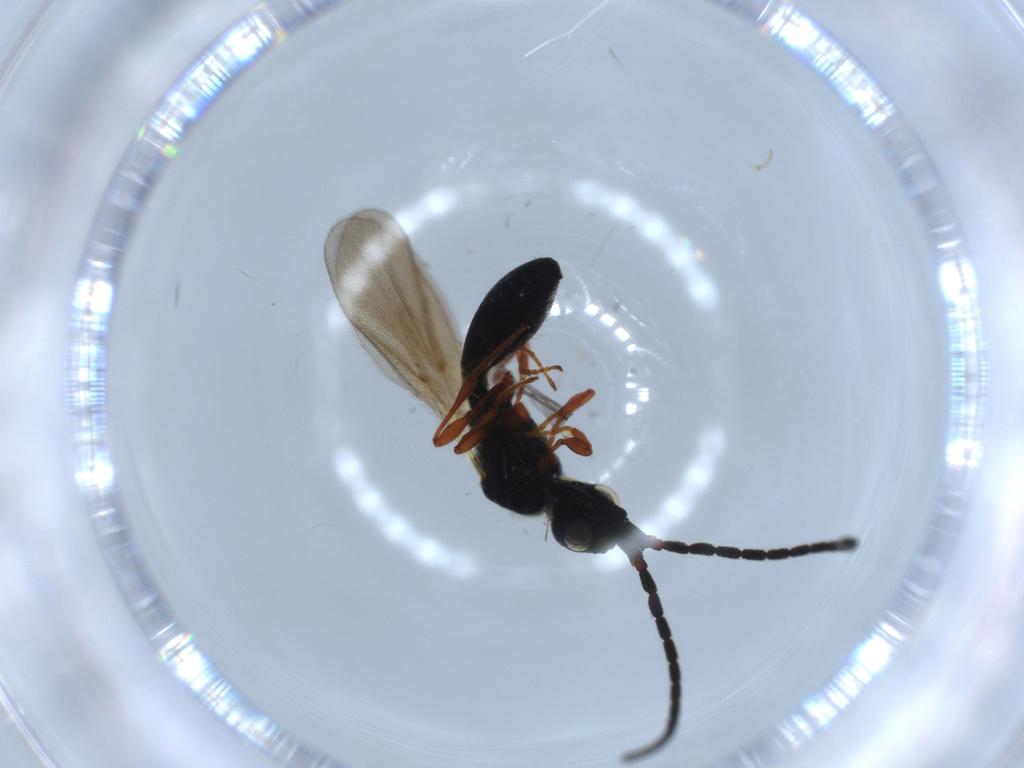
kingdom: Animalia
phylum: Arthropoda
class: Insecta
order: Hymenoptera
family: Diapriidae
